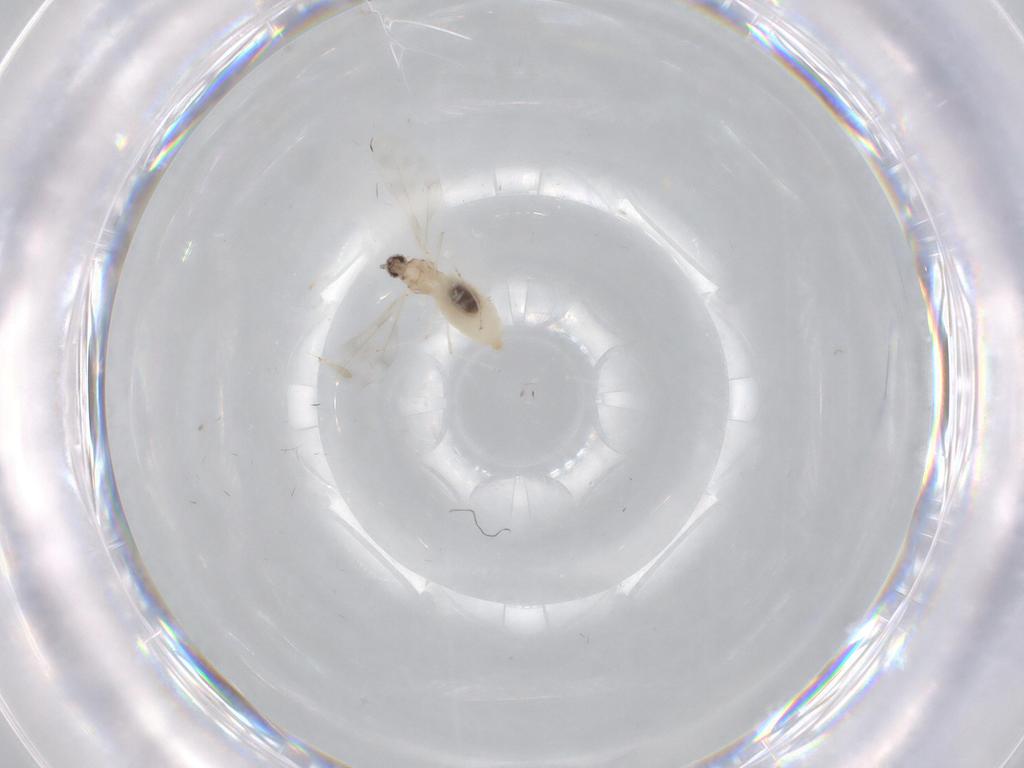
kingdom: Animalia
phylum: Arthropoda
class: Insecta
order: Diptera
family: Cecidomyiidae
